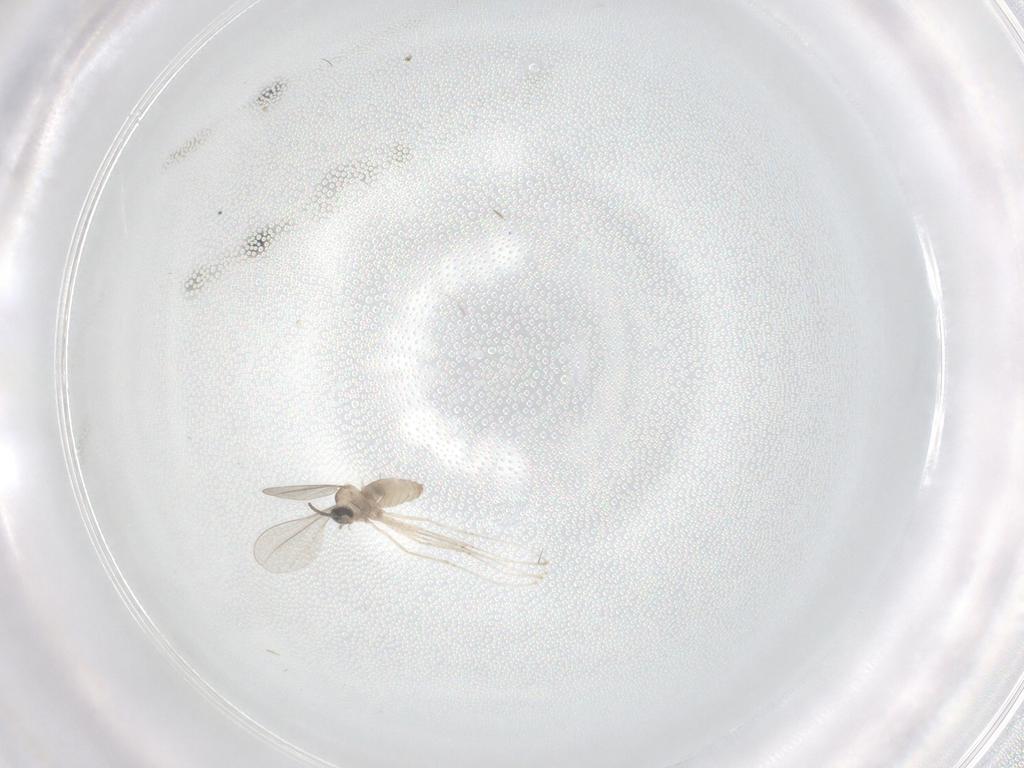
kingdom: Animalia
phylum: Arthropoda
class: Insecta
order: Diptera
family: Cecidomyiidae
